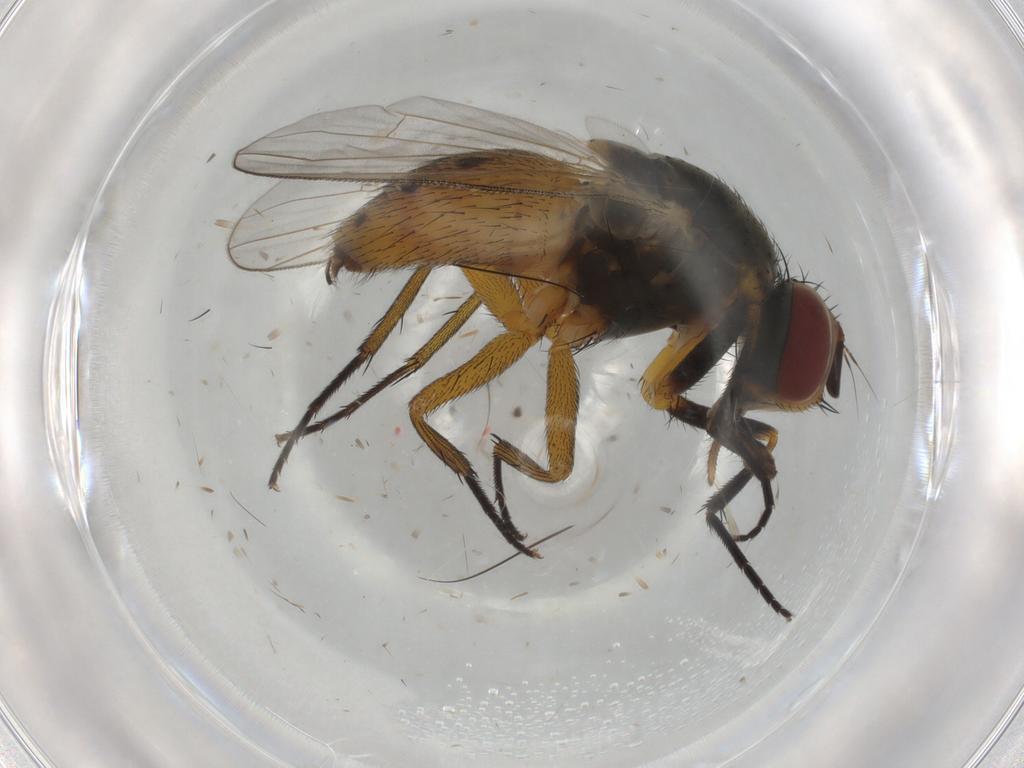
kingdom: Animalia
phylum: Arthropoda
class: Insecta
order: Diptera
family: Muscidae
